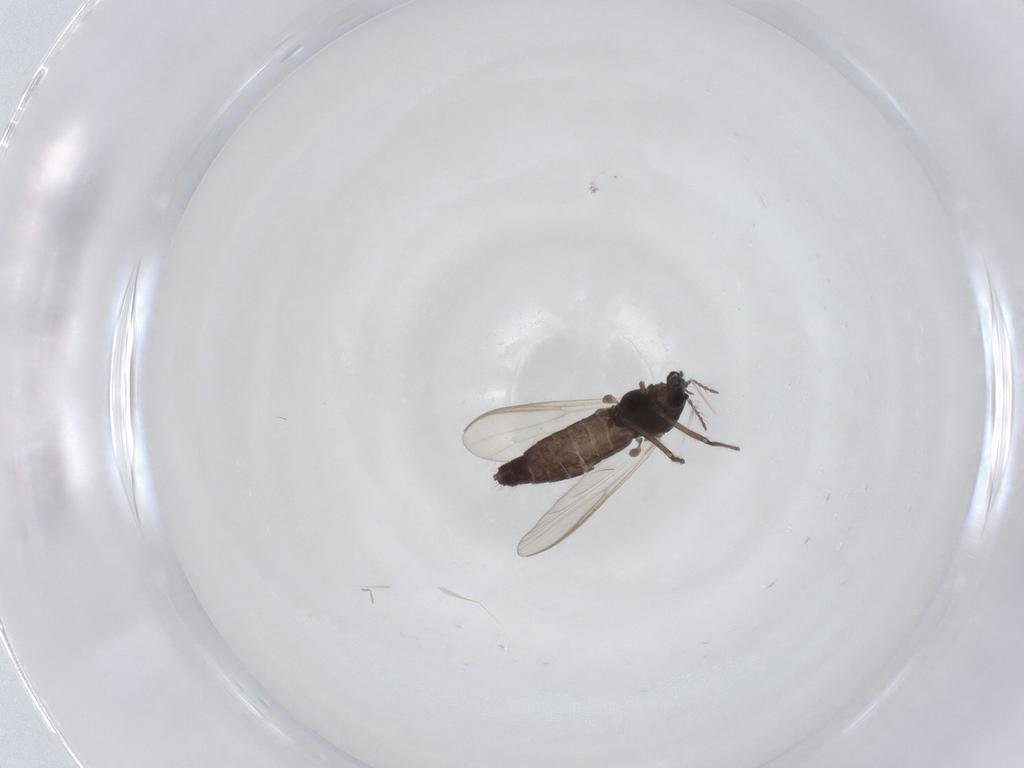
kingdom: Animalia
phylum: Arthropoda
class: Insecta
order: Diptera
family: Chironomidae
